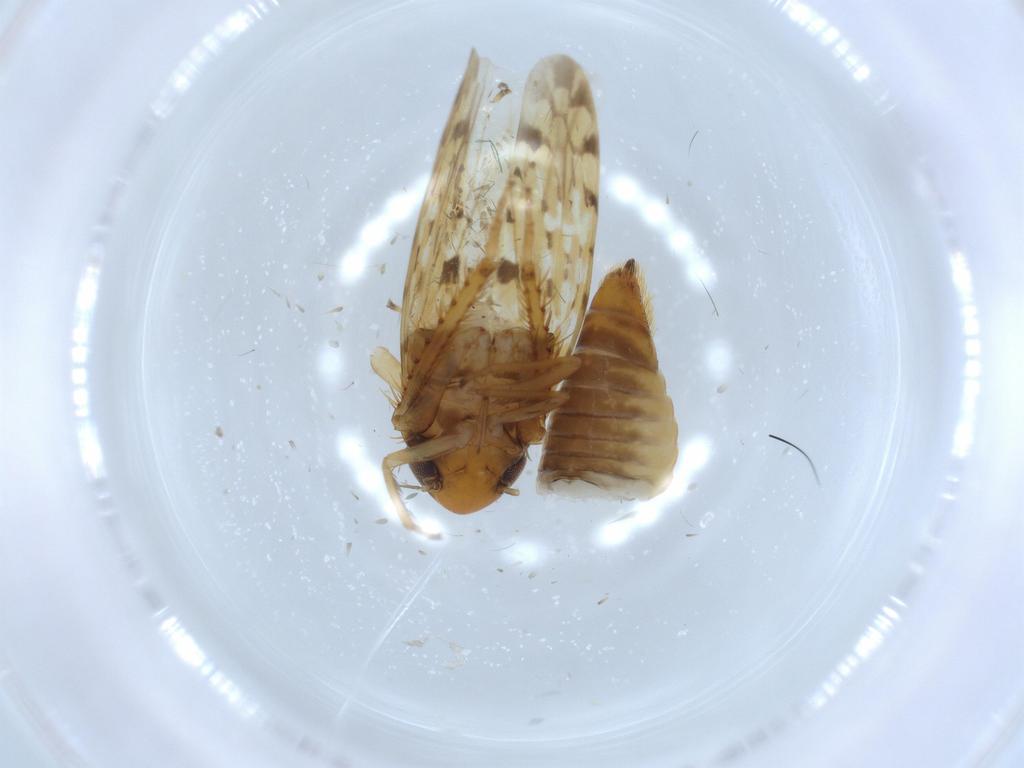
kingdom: Animalia
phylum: Arthropoda
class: Insecta
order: Hemiptera
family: Cicadellidae
